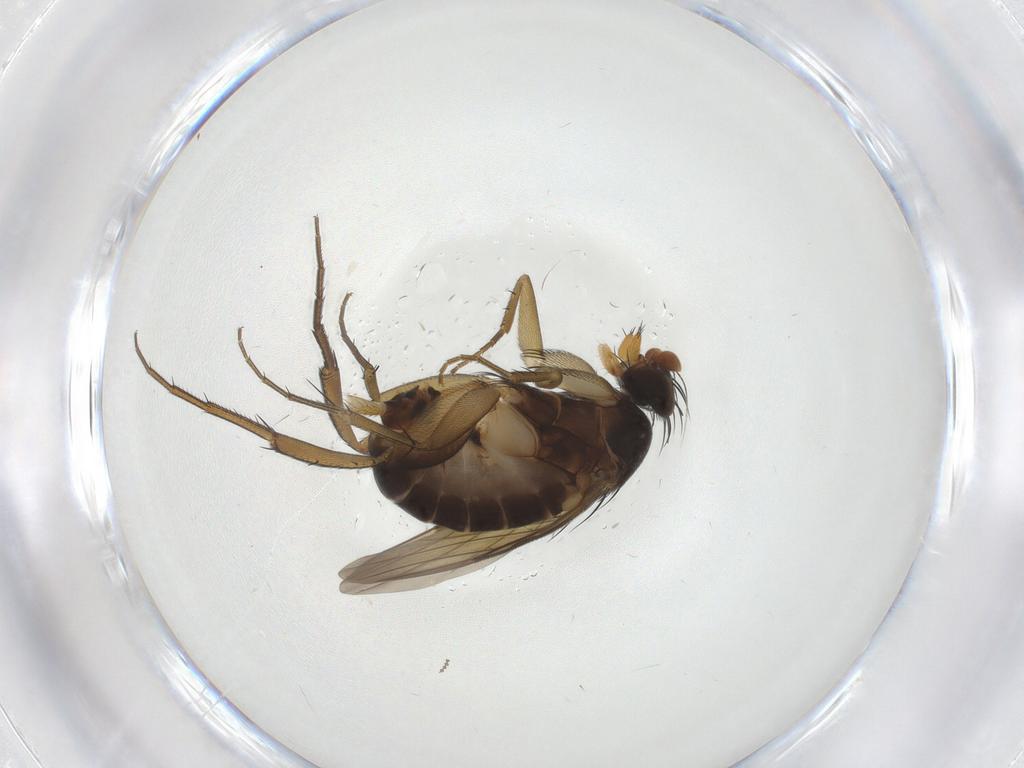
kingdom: Animalia
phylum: Arthropoda
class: Insecta
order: Diptera
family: Phoridae
